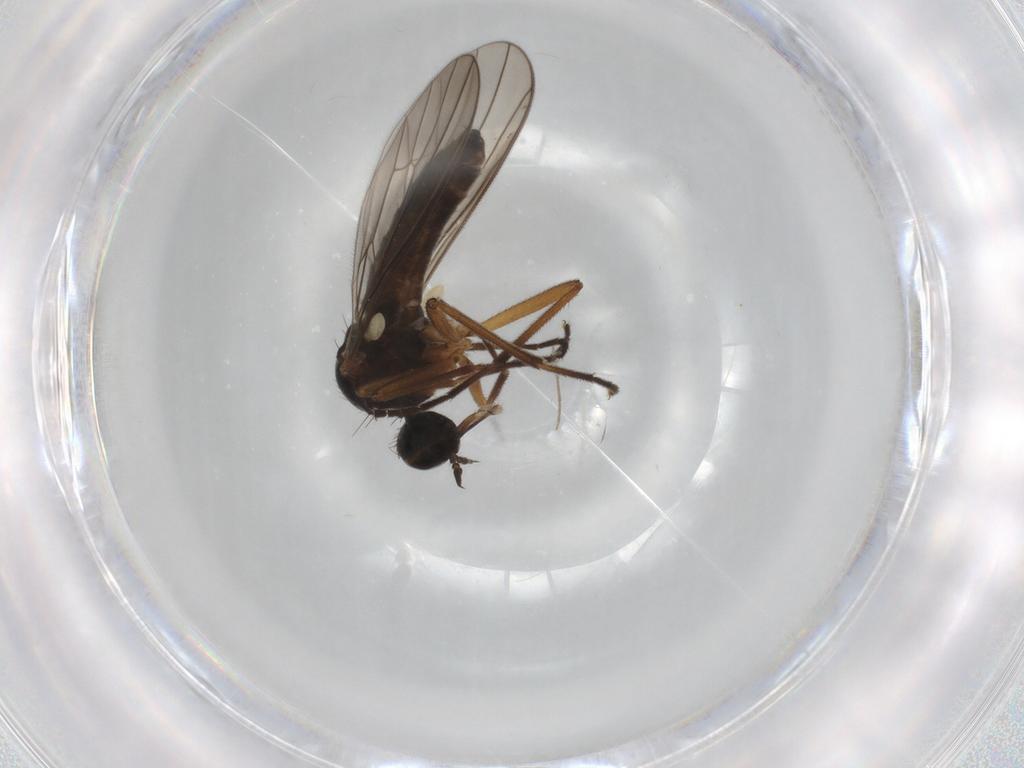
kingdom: Animalia
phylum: Arthropoda
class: Insecta
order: Diptera
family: Empididae
